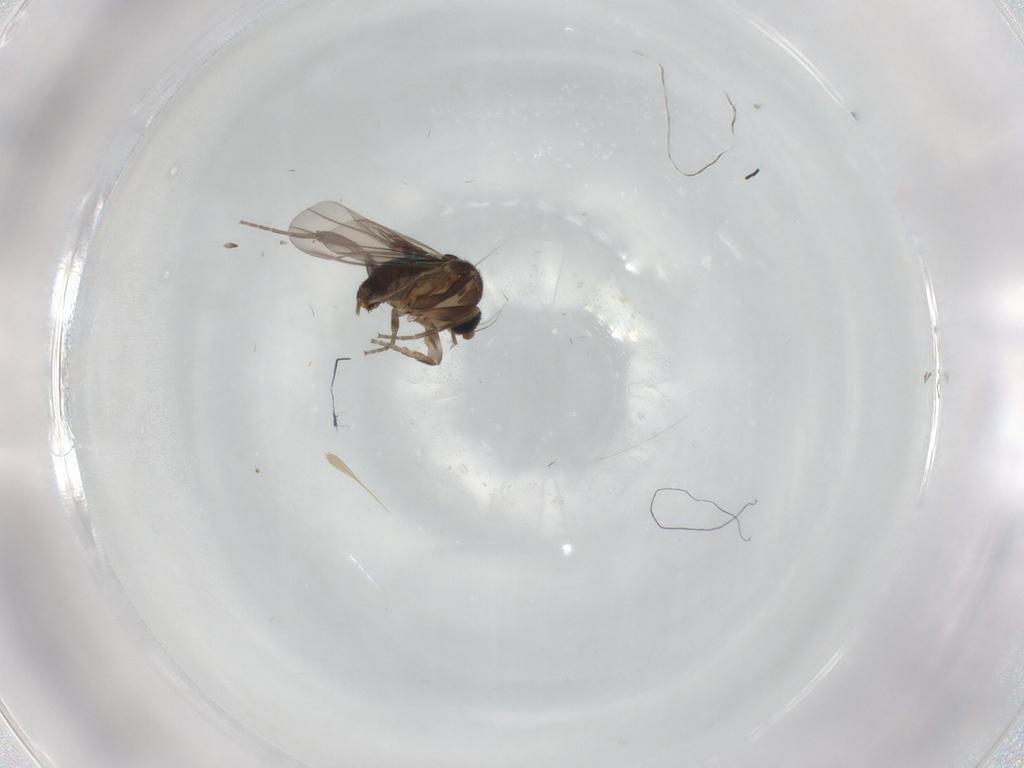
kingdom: Animalia
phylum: Arthropoda
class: Insecta
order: Diptera
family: Phoridae
